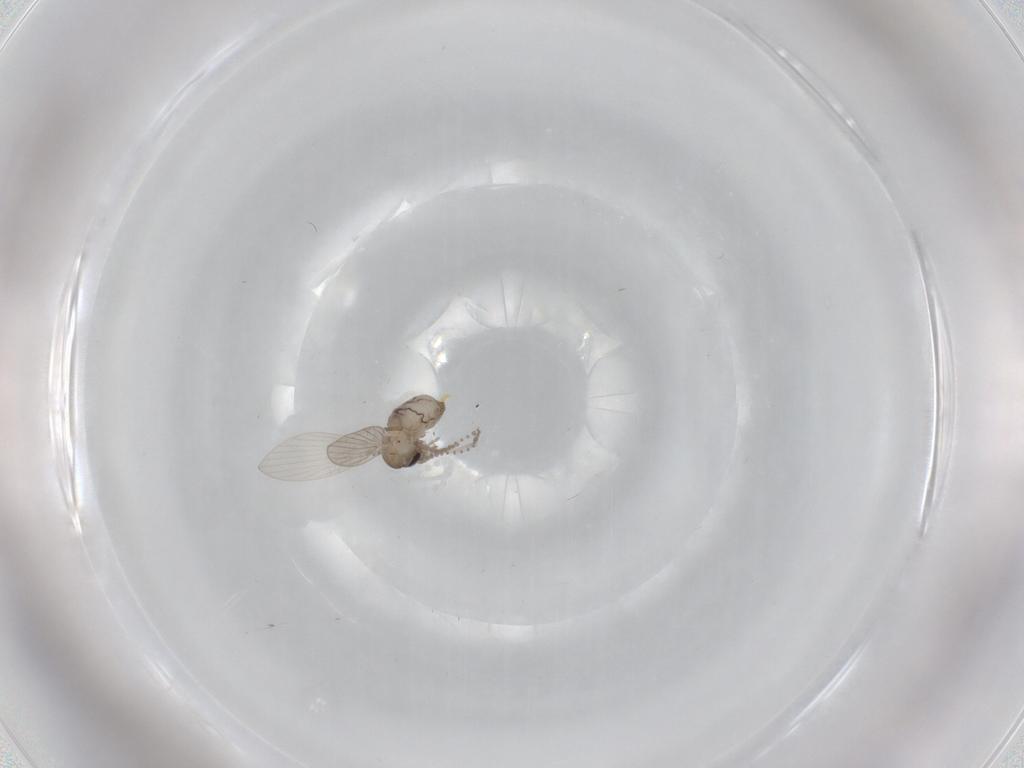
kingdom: Animalia
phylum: Arthropoda
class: Insecta
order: Diptera
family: Psychodidae
